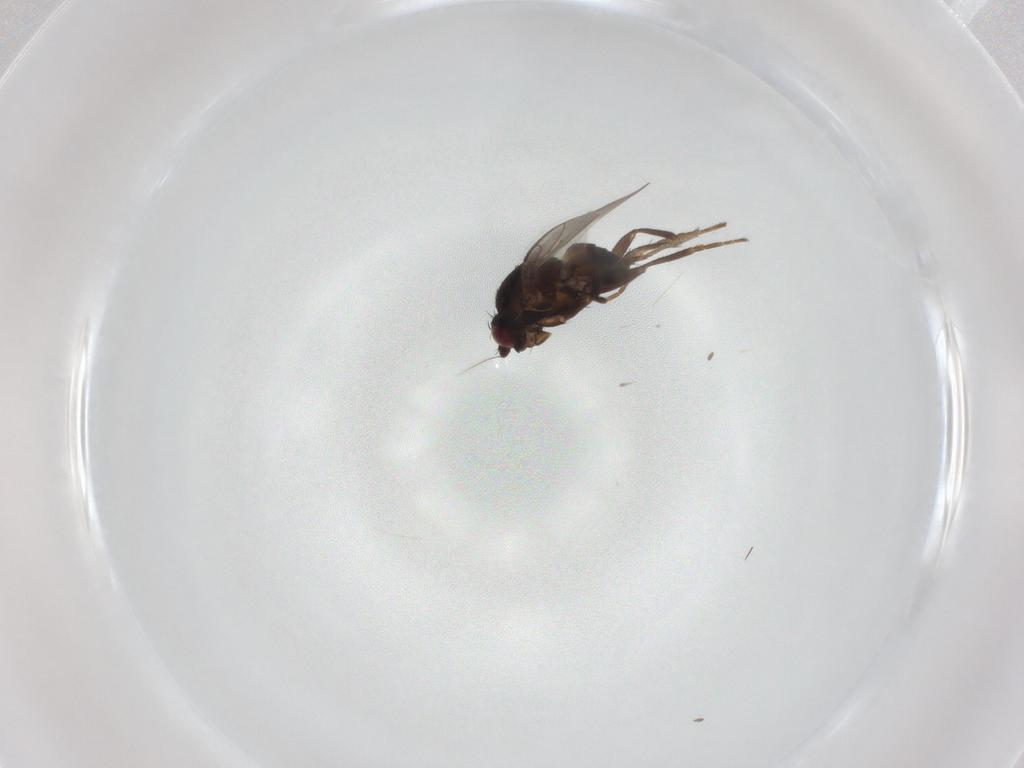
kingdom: Animalia
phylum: Arthropoda
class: Insecta
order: Diptera
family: Sphaeroceridae
